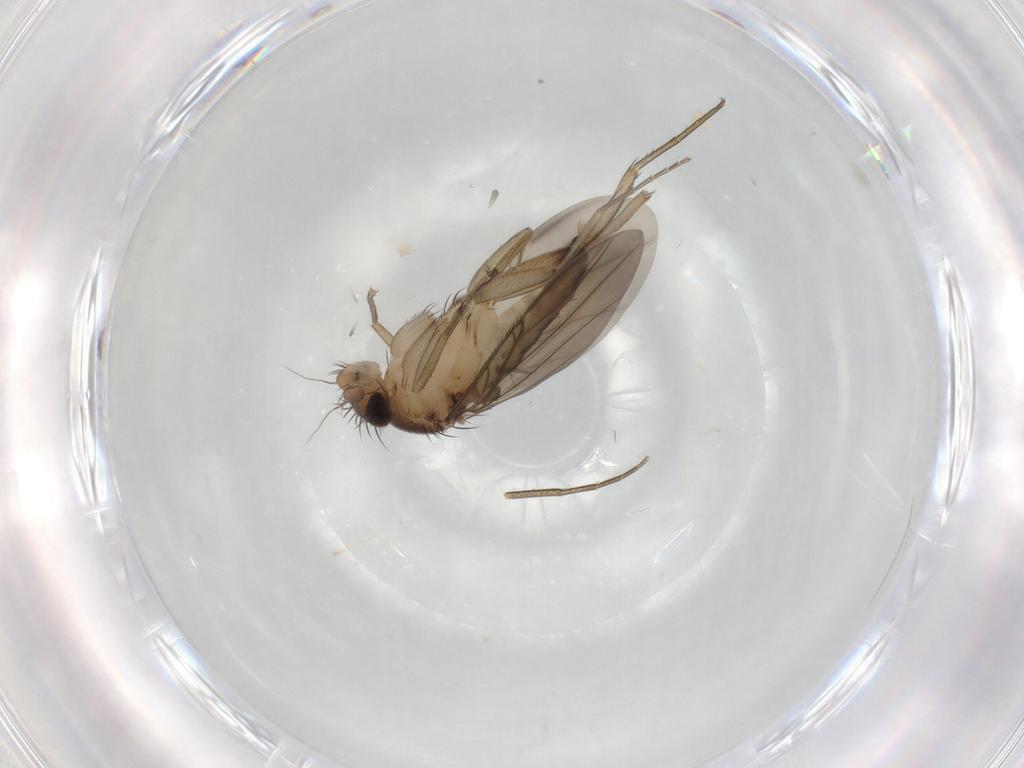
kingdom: Animalia
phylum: Arthropoda
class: Insecta
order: Diptera
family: Phoridae
